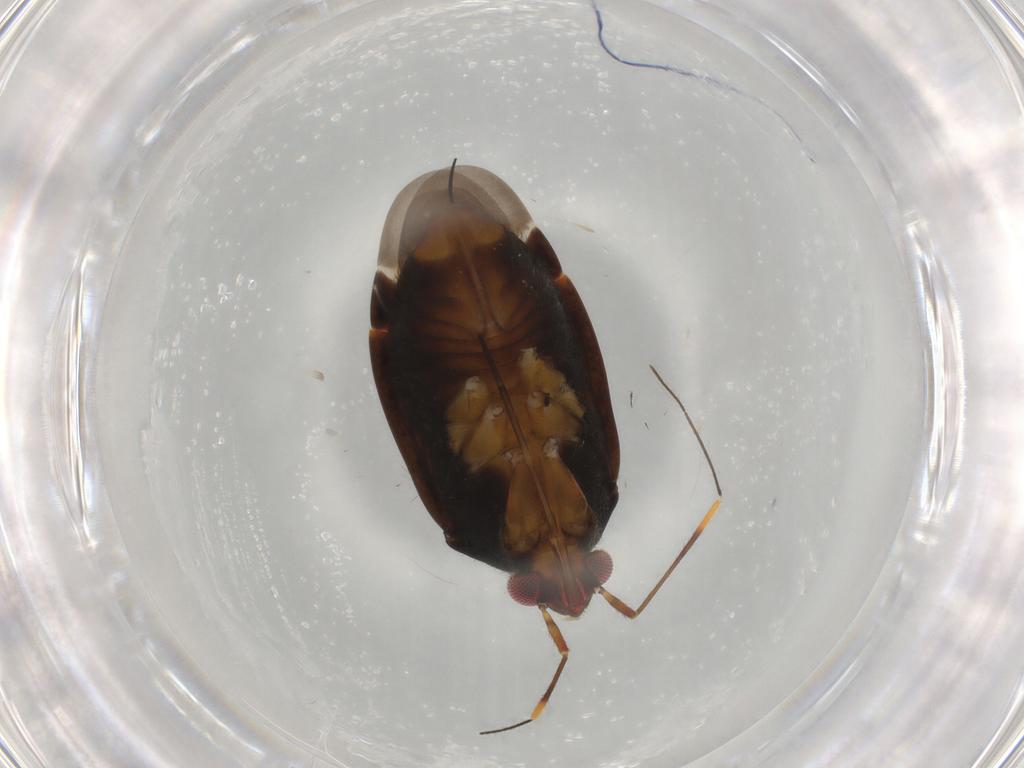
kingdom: Animalia
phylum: Arthropoda
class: Insecta
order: Hemiptera
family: Miridae
